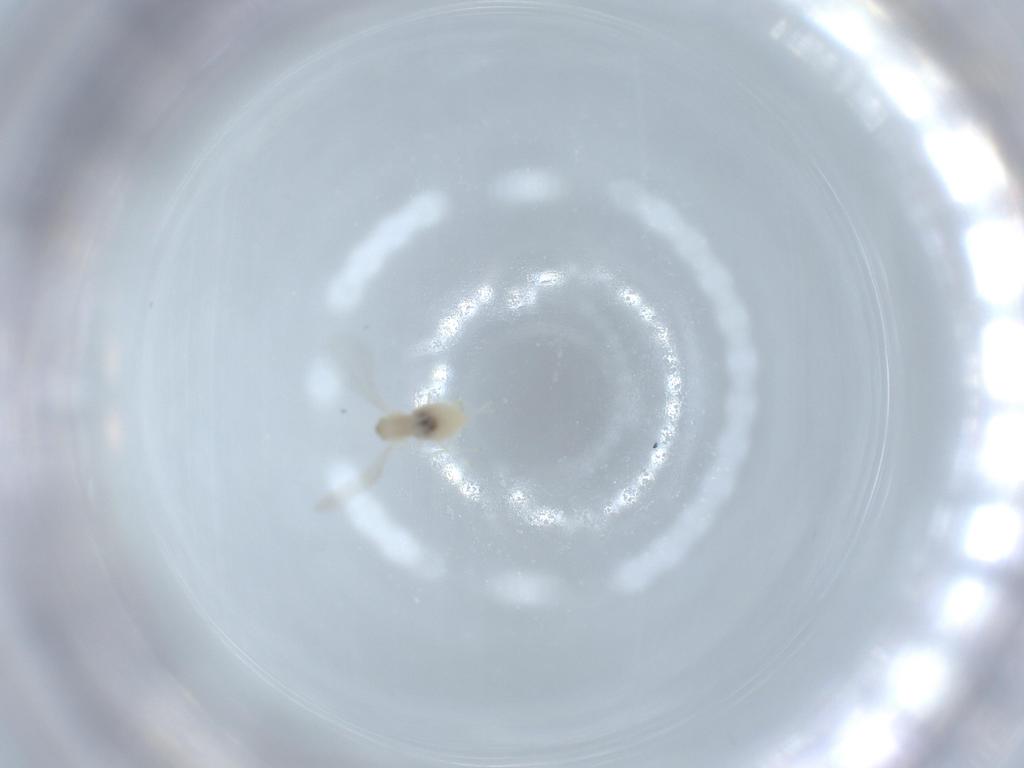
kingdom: Animalia
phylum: Arthropoda
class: Insecta
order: Diptera
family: Cecidomyiidae
